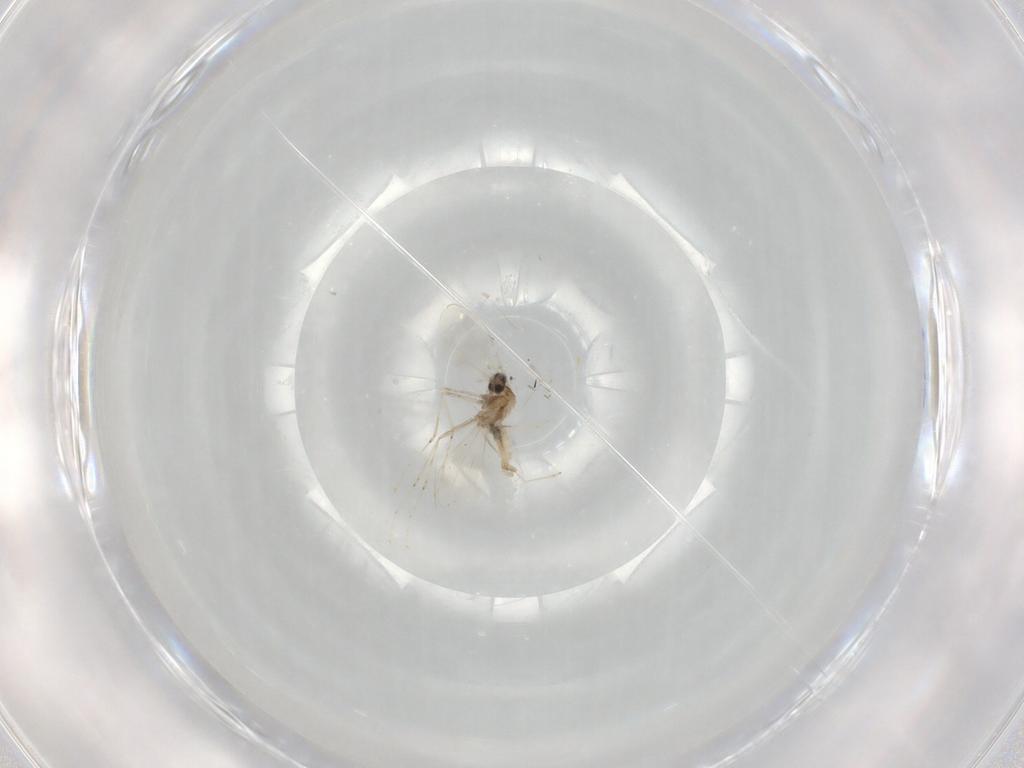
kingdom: Animalia
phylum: Arthropoda
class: Insecta
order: Diptera
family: Cecidomyiidae
